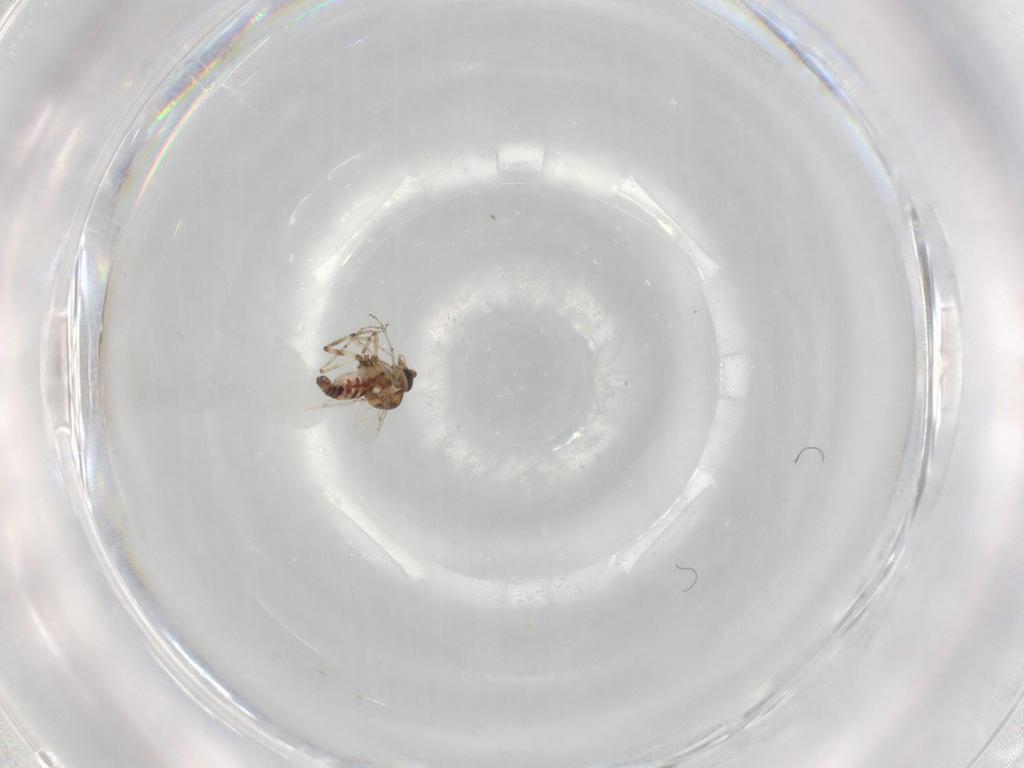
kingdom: Animalia
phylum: Arthropoda
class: Insecta
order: Diptera
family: Ceratopogonidae
